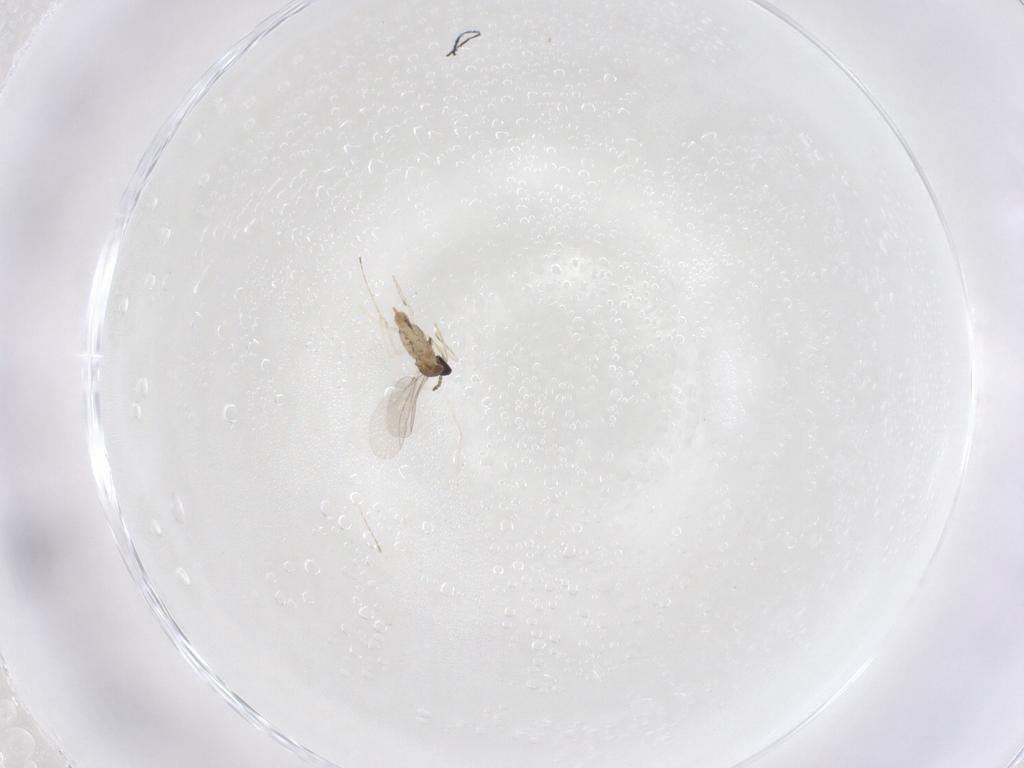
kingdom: Animalia
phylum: Arthropoda
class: Insecta
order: Diptera
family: Cecidomyiidae
